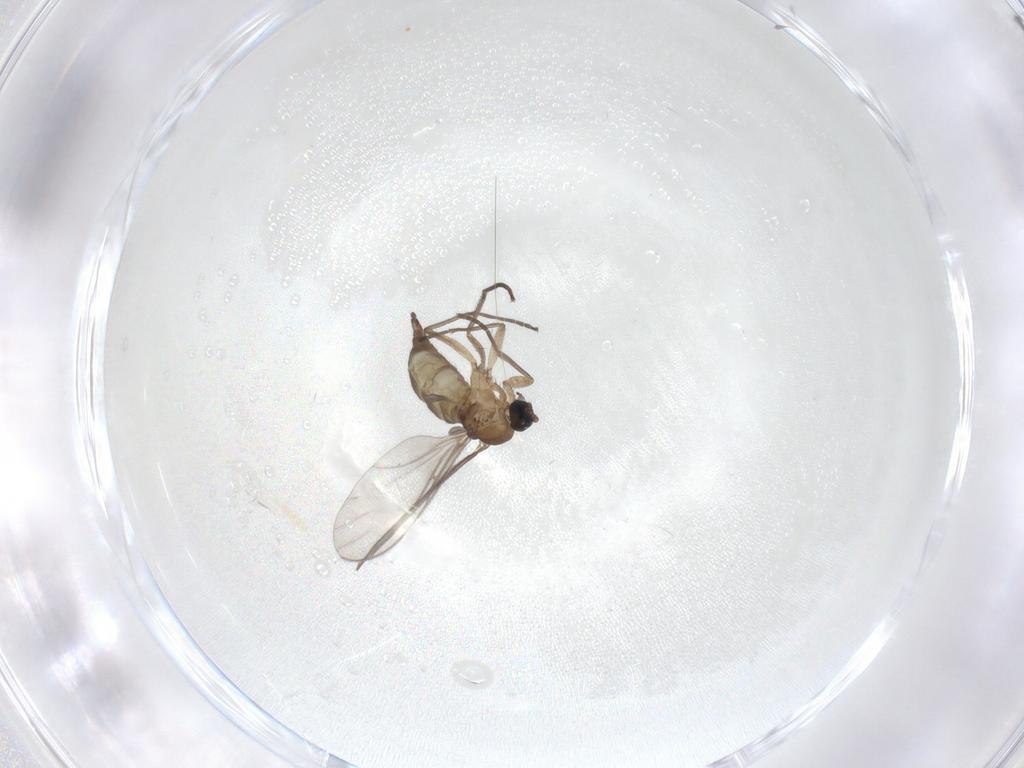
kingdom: Animalia
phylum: Arthropoda
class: Insecta
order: Diptera
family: Sciaridae
